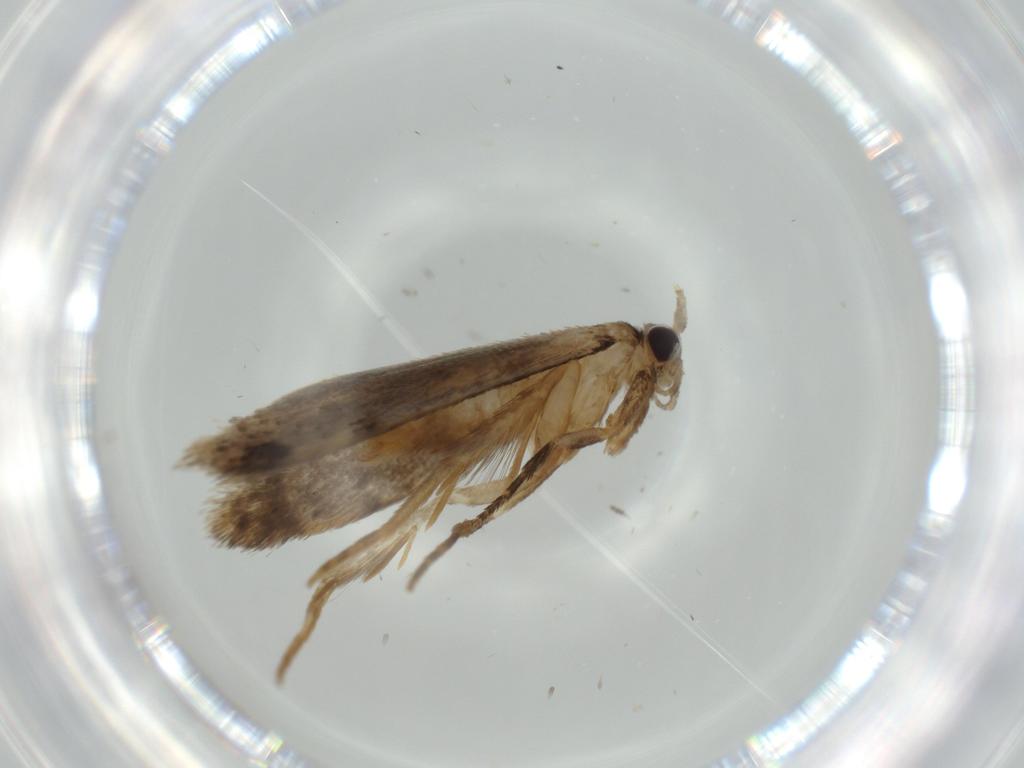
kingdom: Animalia
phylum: Arthropoda
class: Insecta
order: Lepidoptera
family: Tineidae
